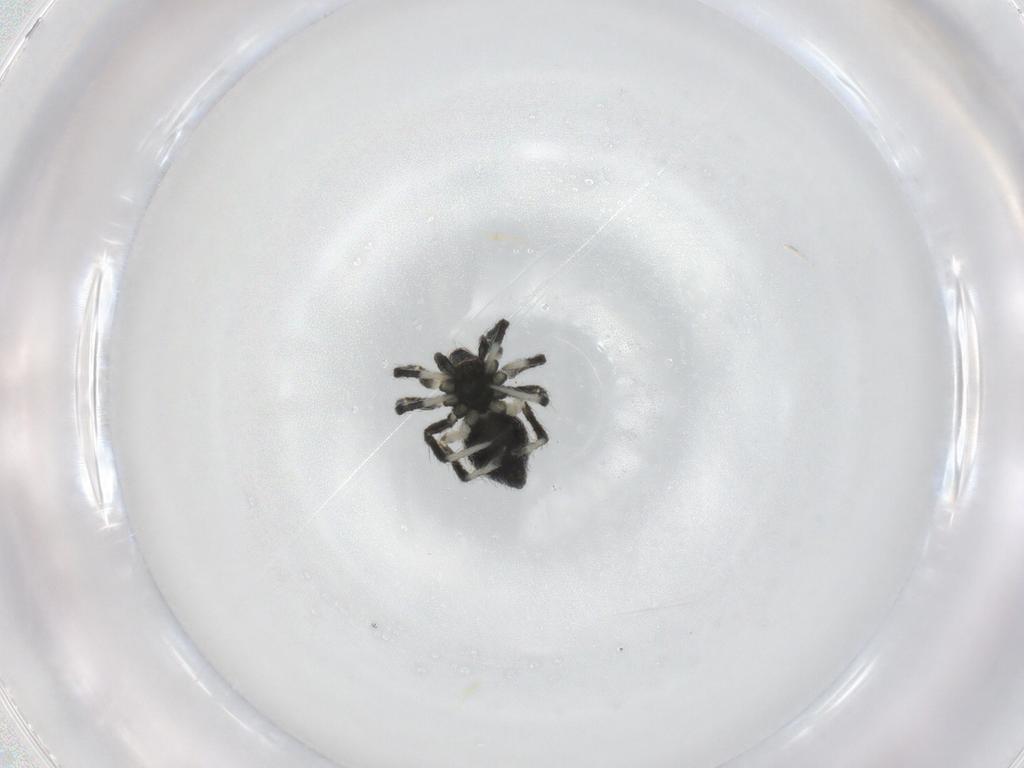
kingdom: Animalia
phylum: Arthropoda
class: Arachnida
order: Araneae
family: Theridiidae
